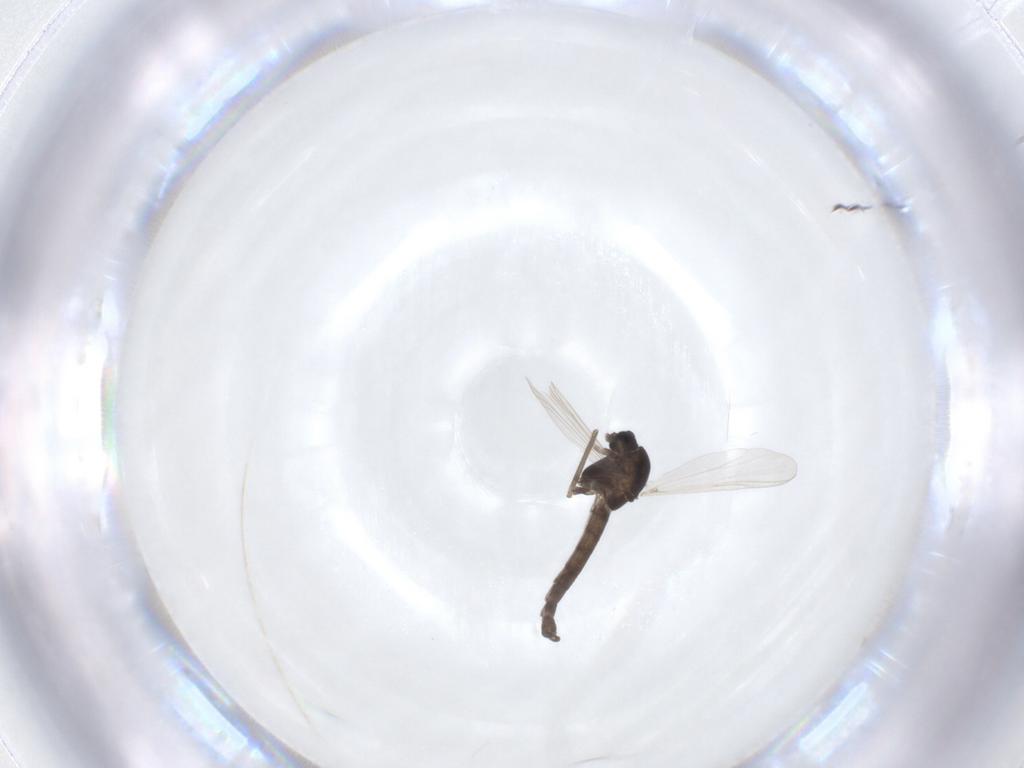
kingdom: Animalia
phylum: Arthropoda
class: Insecta
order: Diptera
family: Chironomidae
